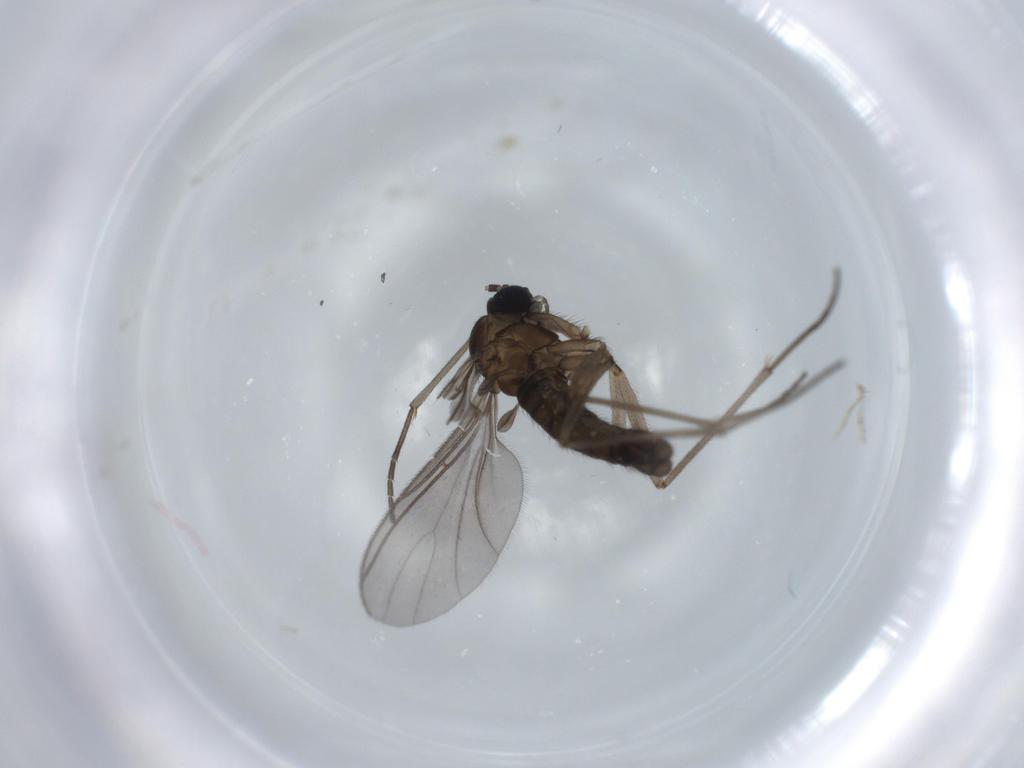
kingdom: Animalia
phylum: Arthropoda
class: Insecta
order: Diptera
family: Sciaridae
